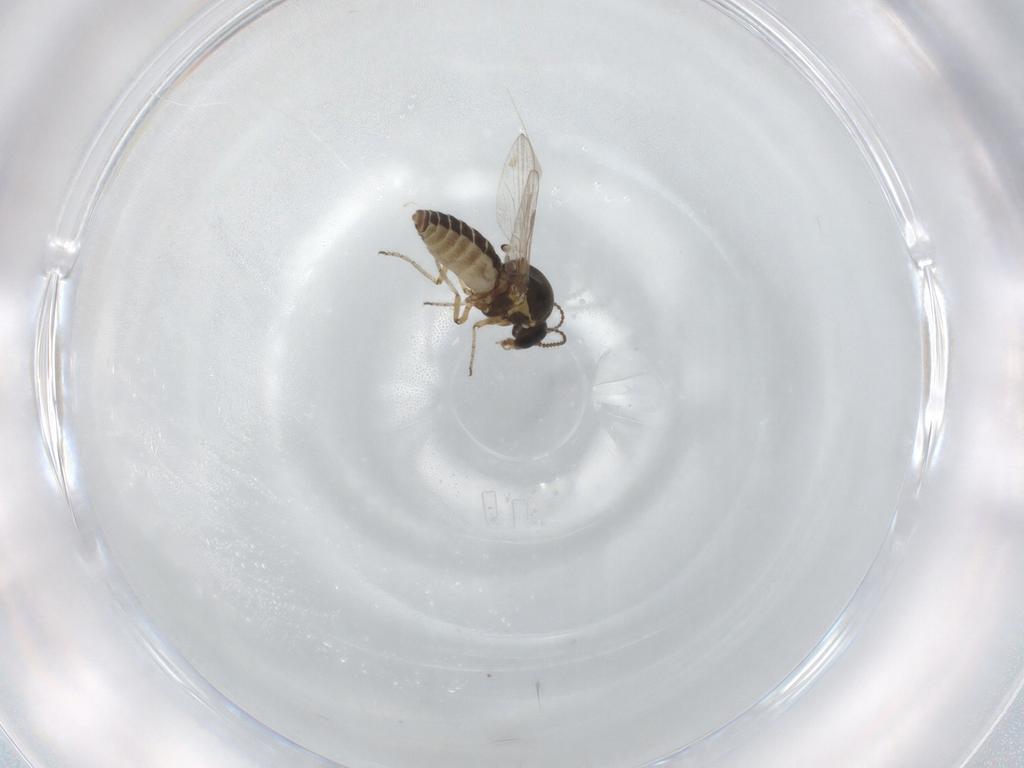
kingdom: Animalia
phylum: Arthropoda
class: Insecta
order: Diptera
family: Ceratopogonidae
